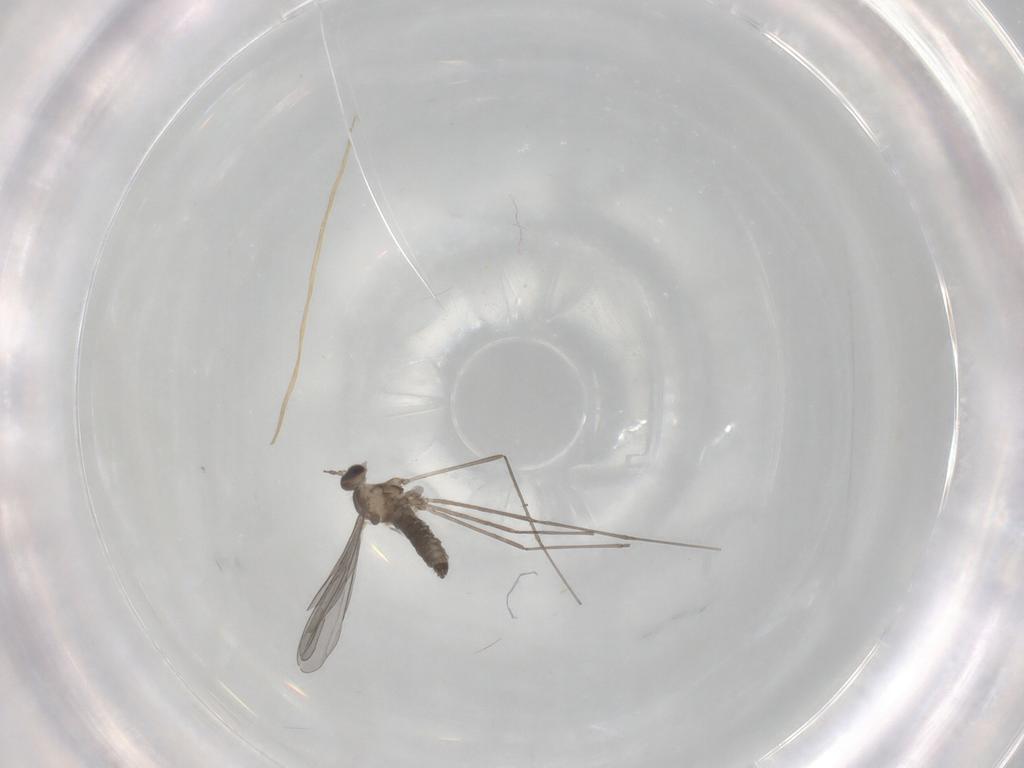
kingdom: Animalia
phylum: Arthropoda
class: Insecta
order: Diptera
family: Cecidomyiidae
